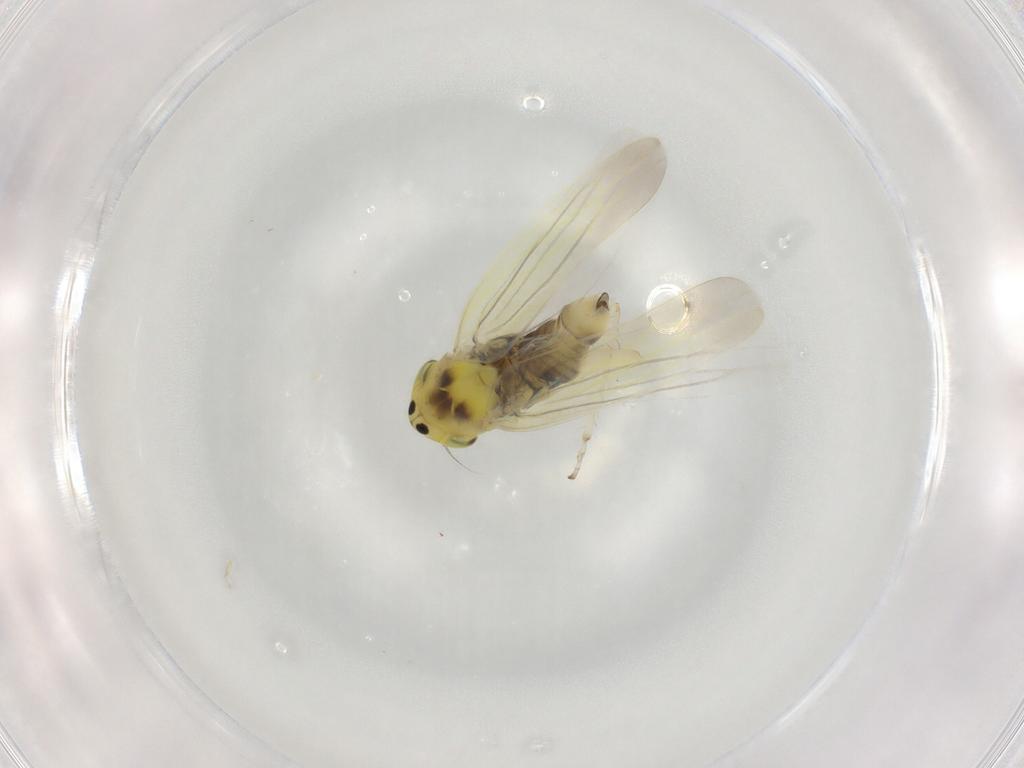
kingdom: Animalia
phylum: Arthropoda
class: Insecta
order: Hemiptera
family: Cicadellidae
